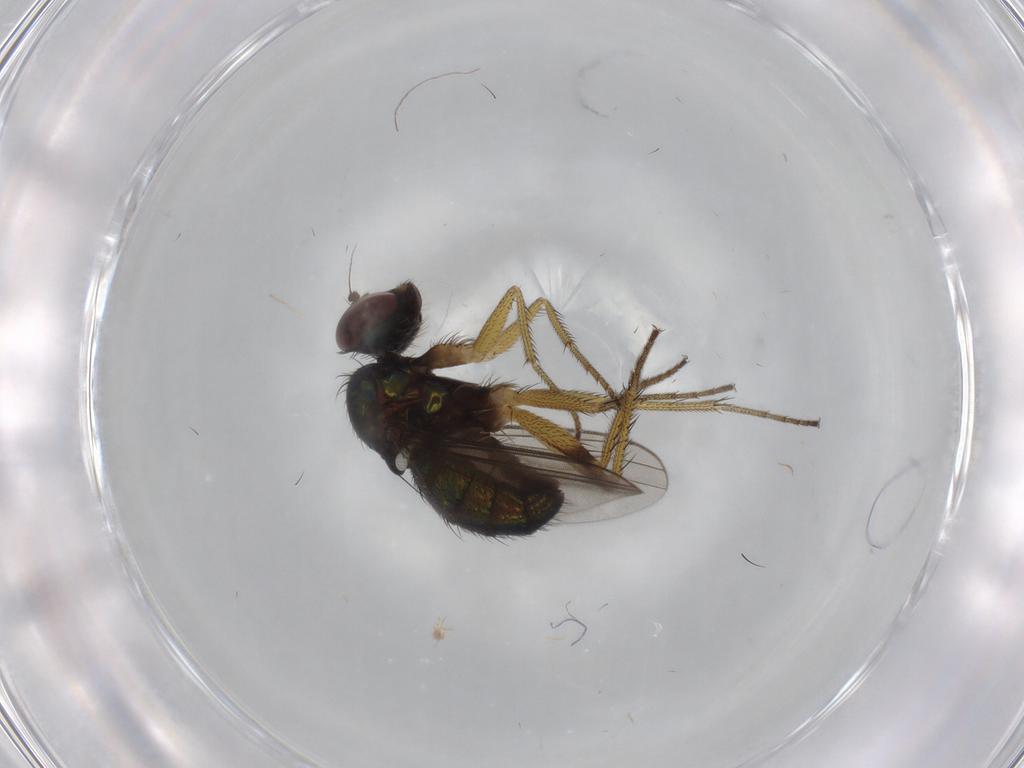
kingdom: Animalia
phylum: Arthropoda
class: Insecta
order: Diptera
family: Dolichopodidae
